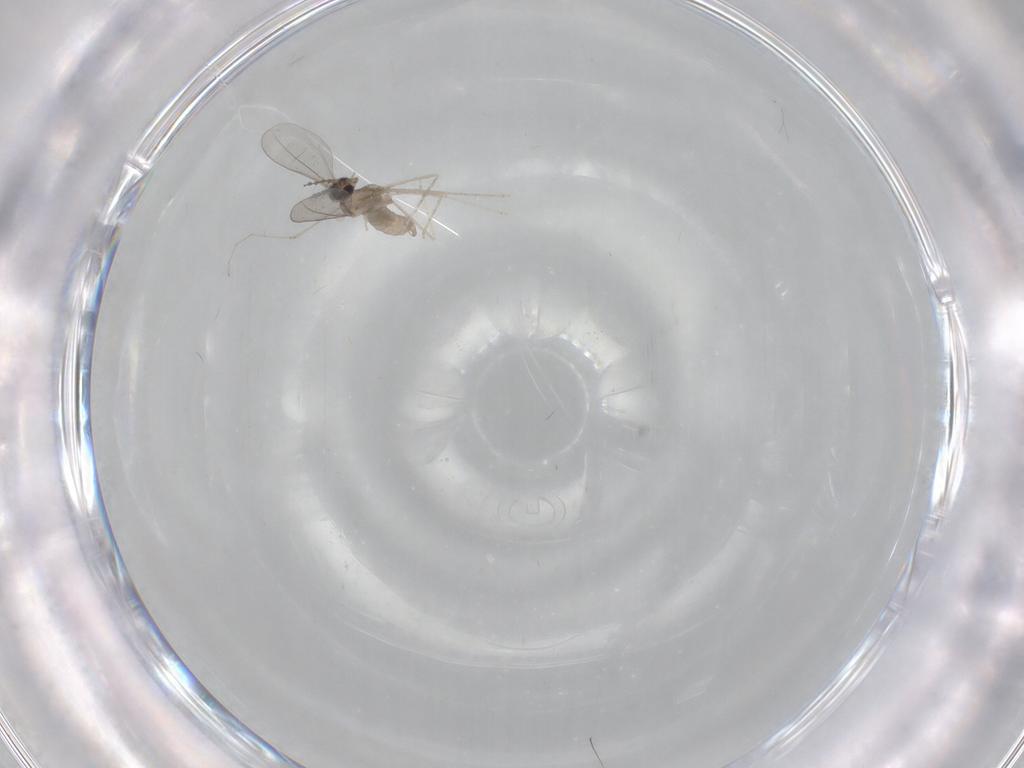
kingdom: Animalia
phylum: Arthropoda
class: Insecta
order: Diptera
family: Cecidomyiidae
